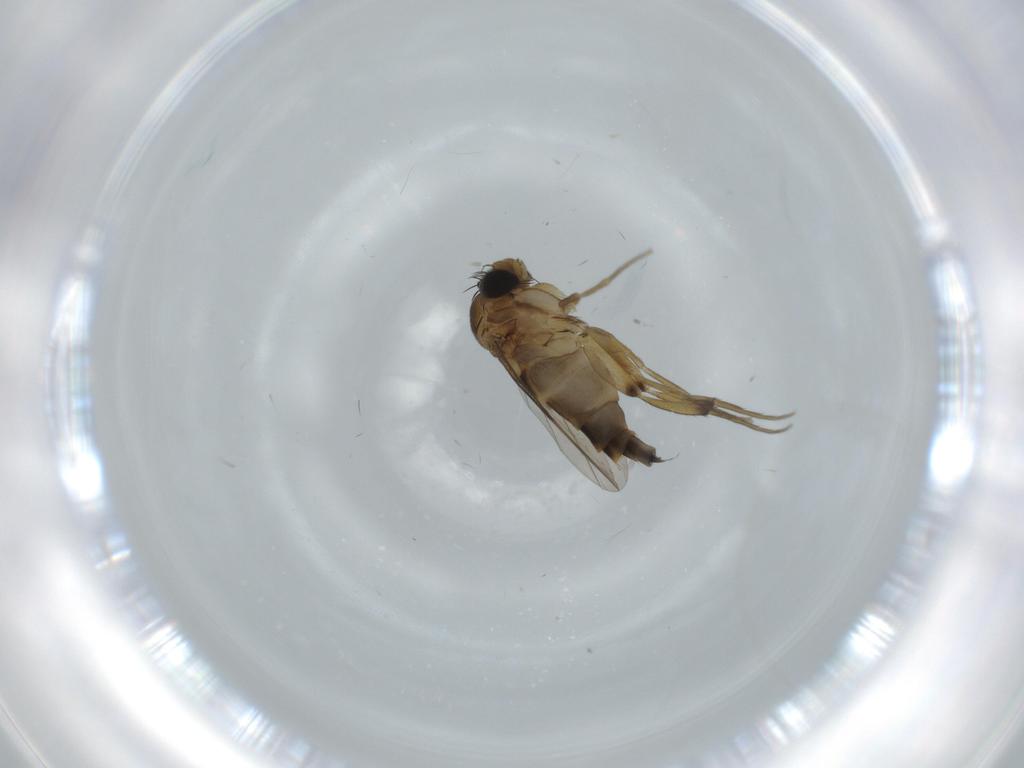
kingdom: Animalia
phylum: Arthropoda
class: Insecta
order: Diptera
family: Phoridae
